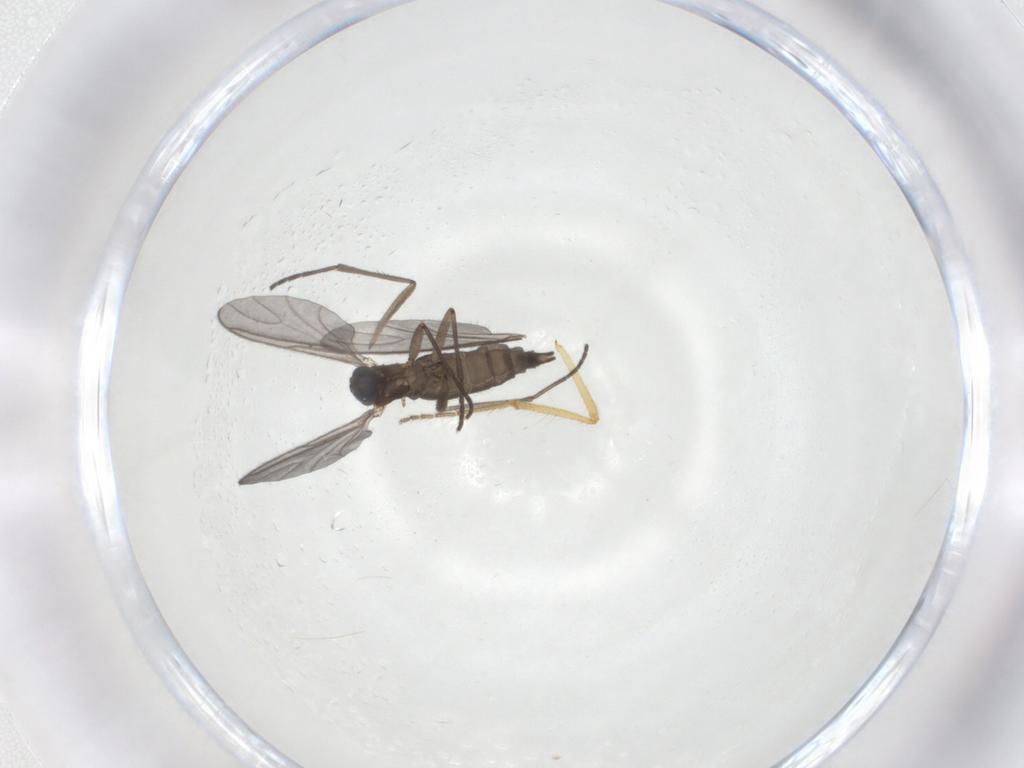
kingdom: Animalia
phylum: Arthropoda
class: Insecta
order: Diptera
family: Ceratopogonidae
